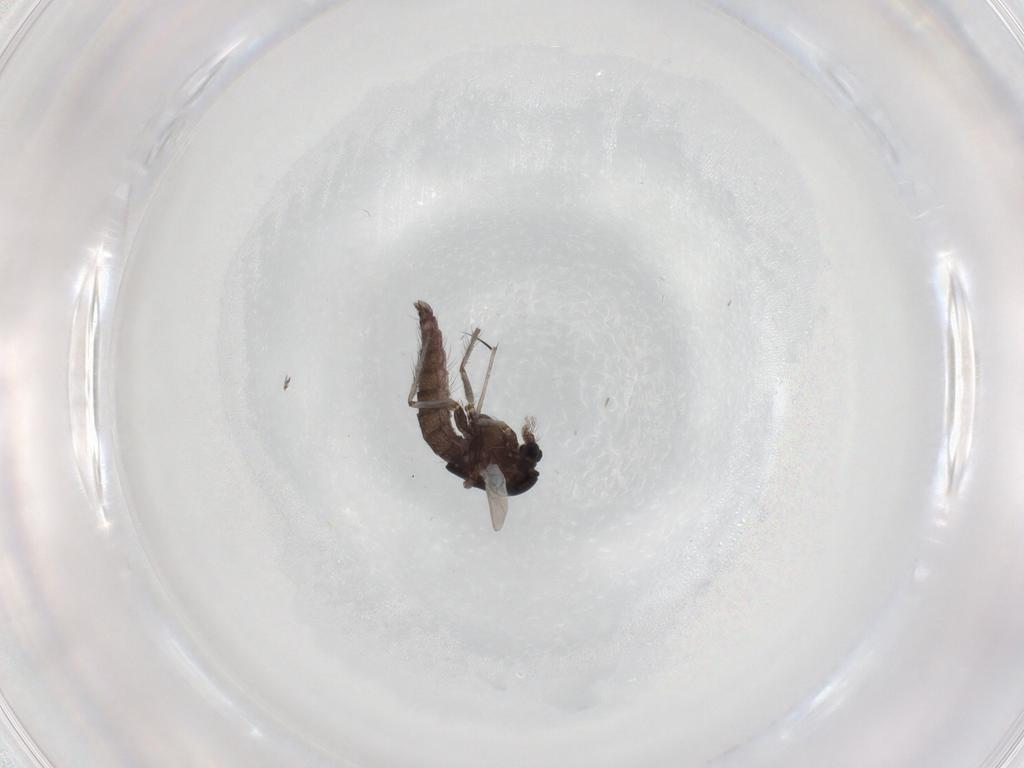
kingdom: Animalia
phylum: Arthropoda
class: Insecta
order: Diptera
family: Chironomidae
